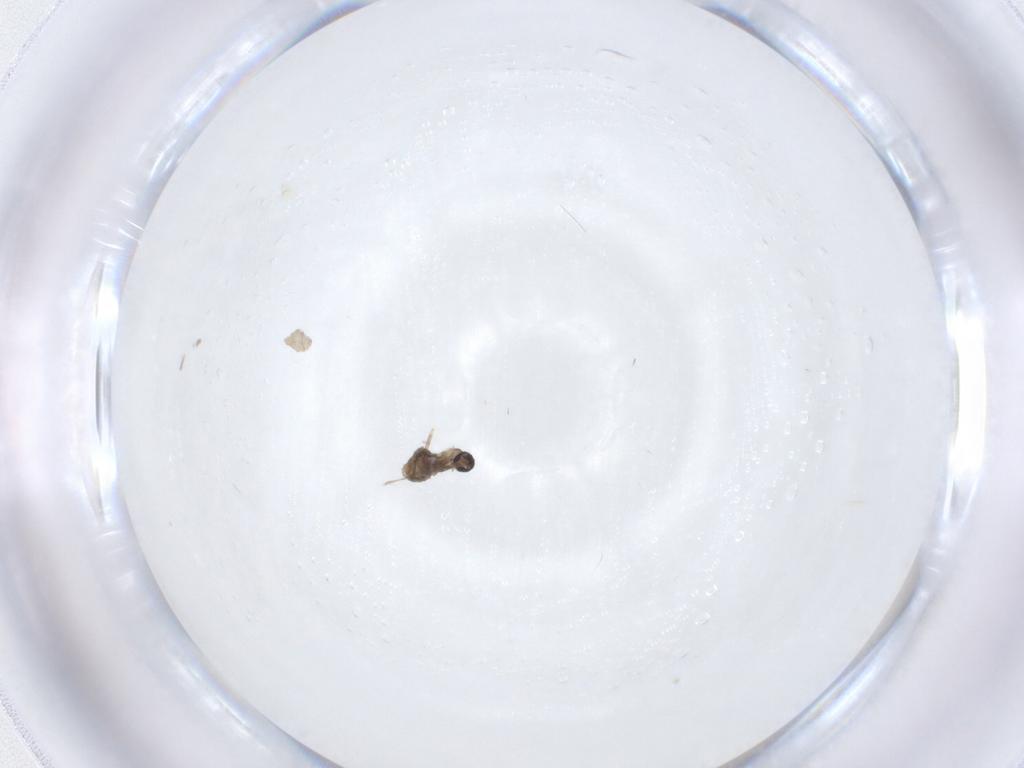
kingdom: Animalia
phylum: Arthropoda
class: Insecta
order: Diptera
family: Cecidomyiidae
